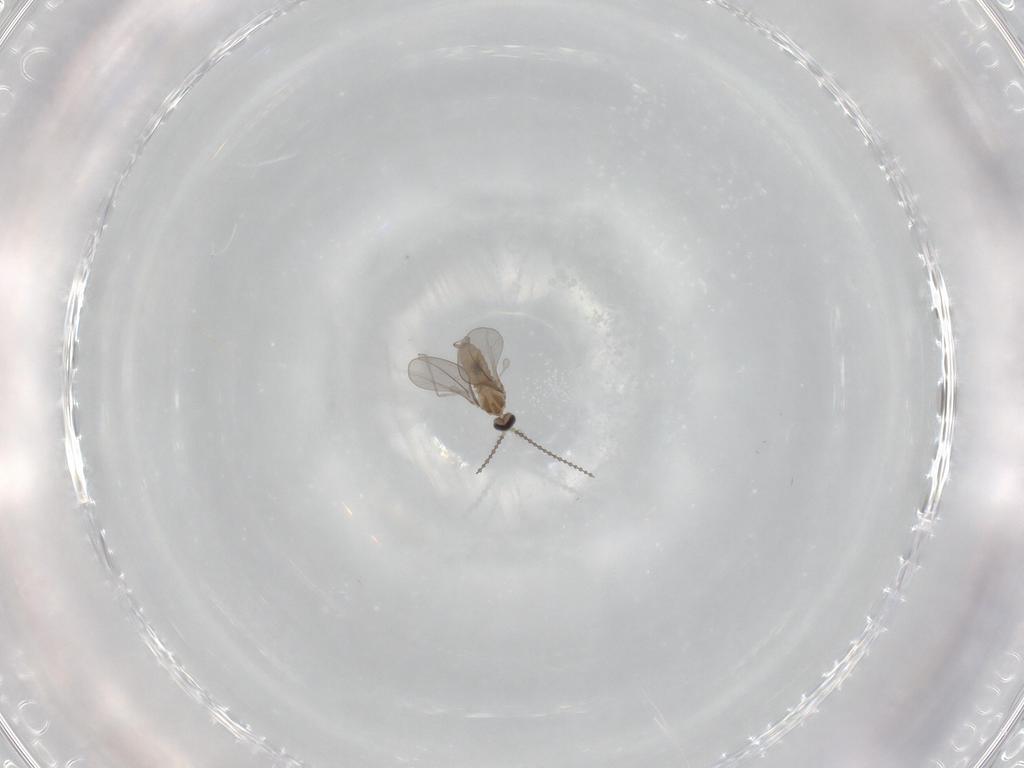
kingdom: Animalia
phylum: Arthropoda
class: Insecta
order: Diptera
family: Cecidomyiidae
